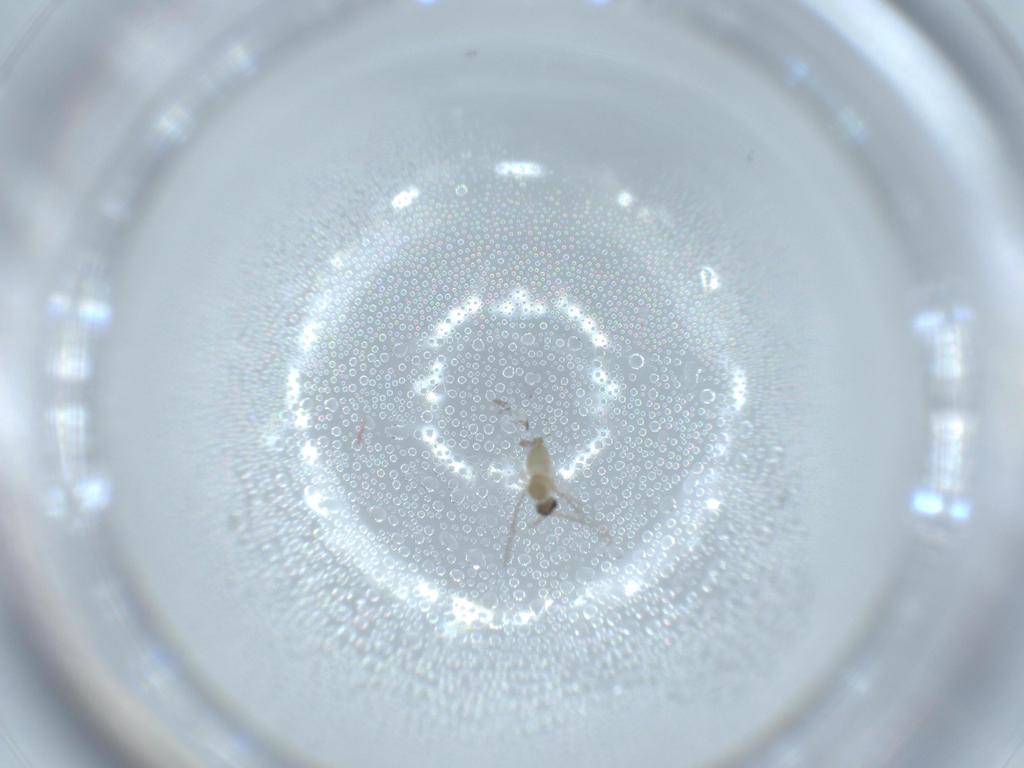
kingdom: Animalia
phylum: Arthropoda
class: Insecta
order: Diptera
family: Cecidomyiidae
